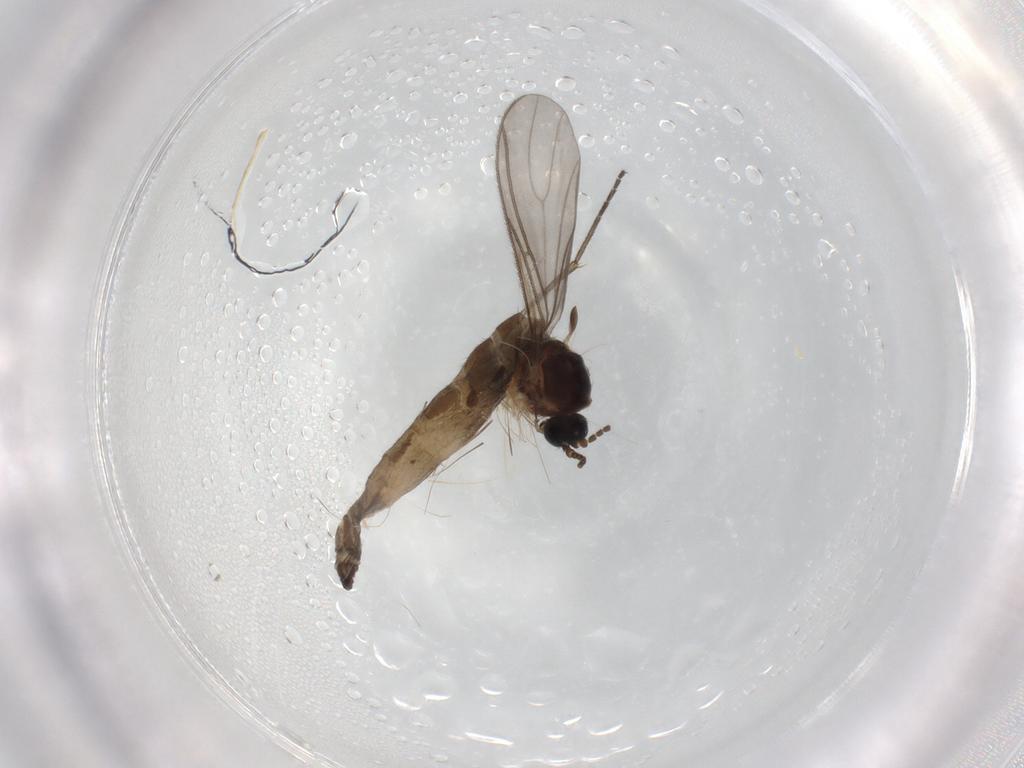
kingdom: Animalia
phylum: Arthropoda
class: Insecta
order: Diptera
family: Sciaridae
